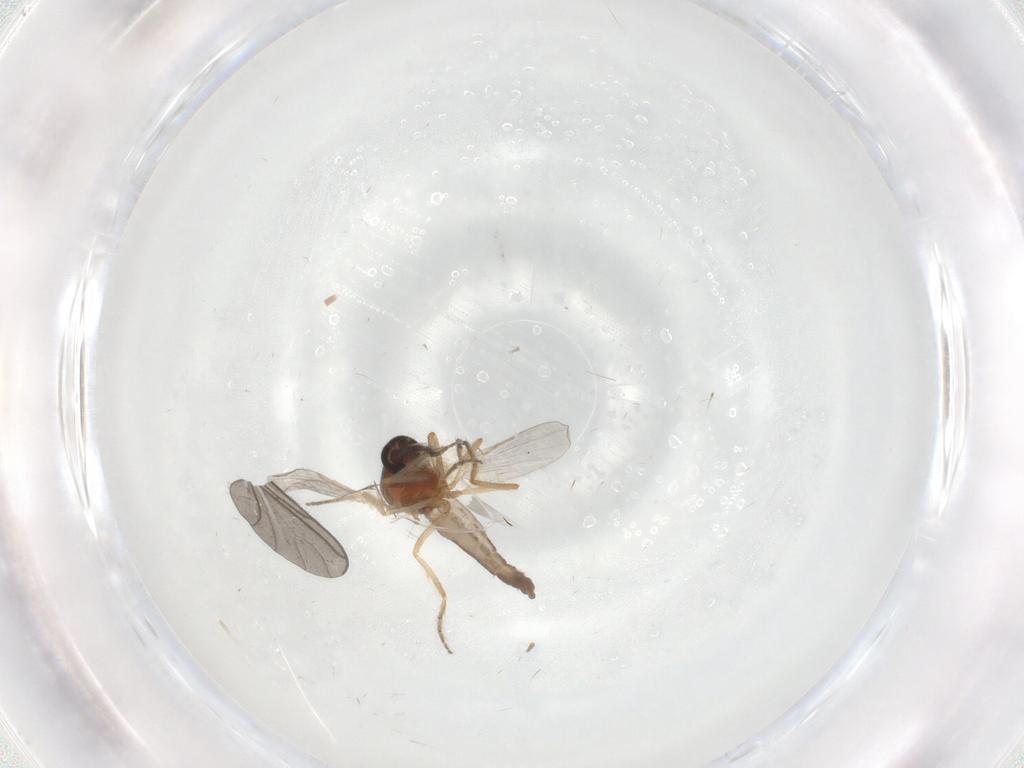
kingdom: Animalia
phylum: Arthropoda
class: Insecta
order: Diptera
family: Ceratopogonidae
